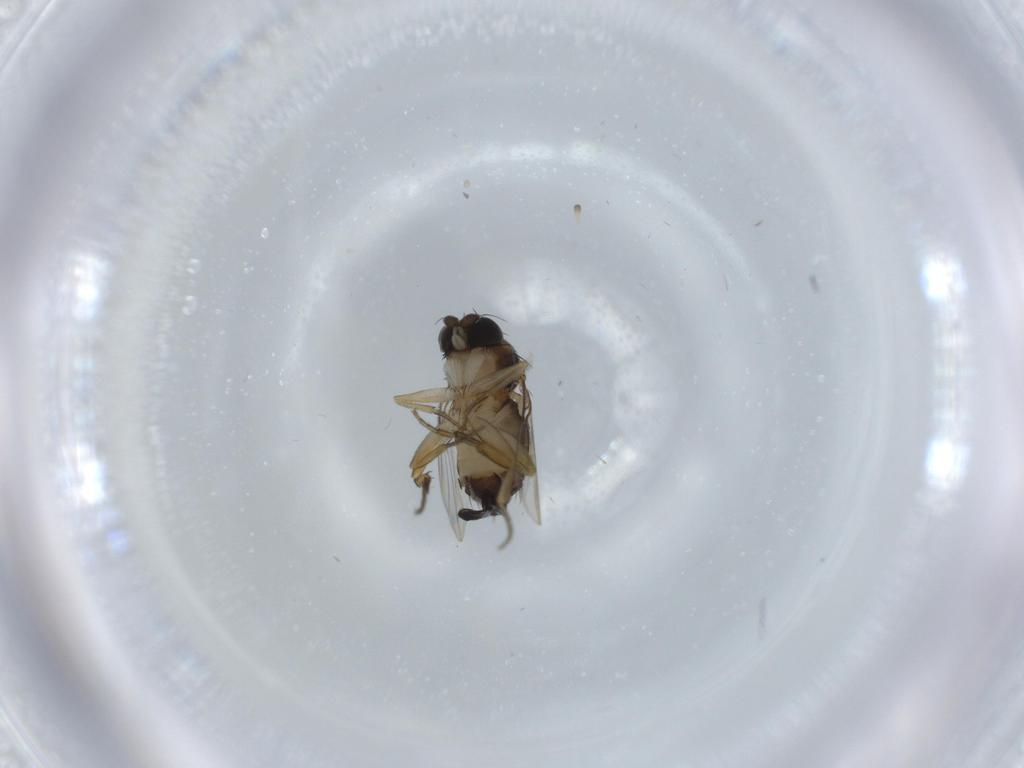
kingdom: Animalia
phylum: Arthropoda
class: Insecta
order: Diptera
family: Phoridae
